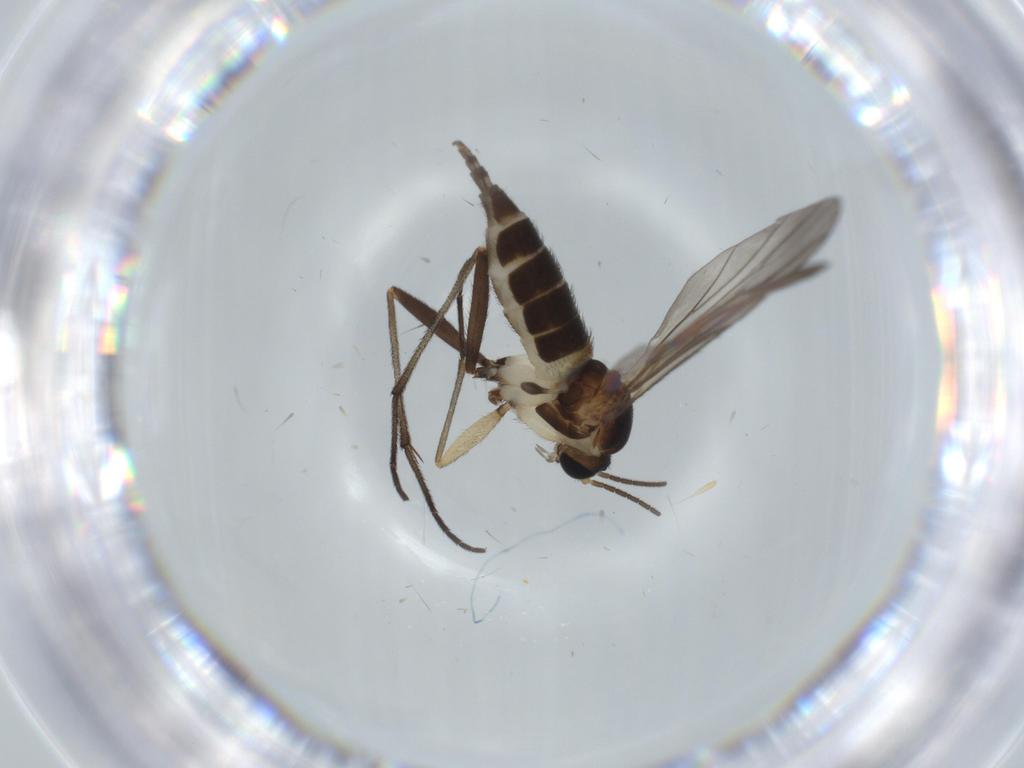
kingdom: Animalia
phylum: Arthropoda
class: Insecta
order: Diptera
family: Sciaridae
